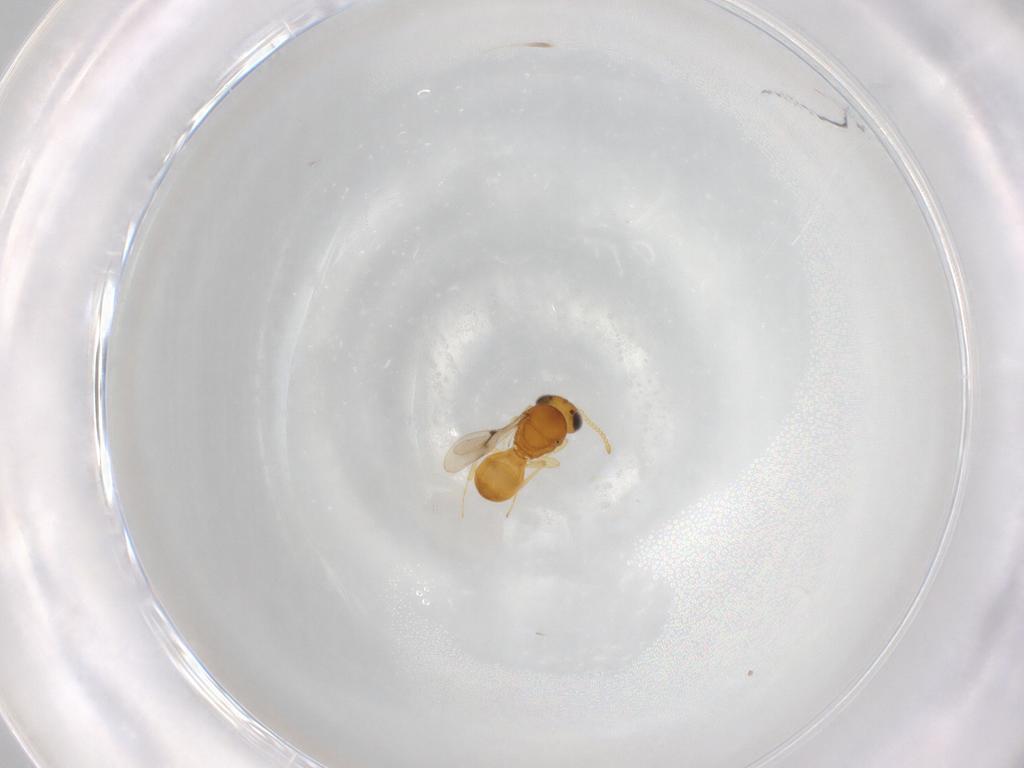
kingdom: Animalia
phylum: Arthropoda
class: Insecta
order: Hymenoptera
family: Scelionidae
